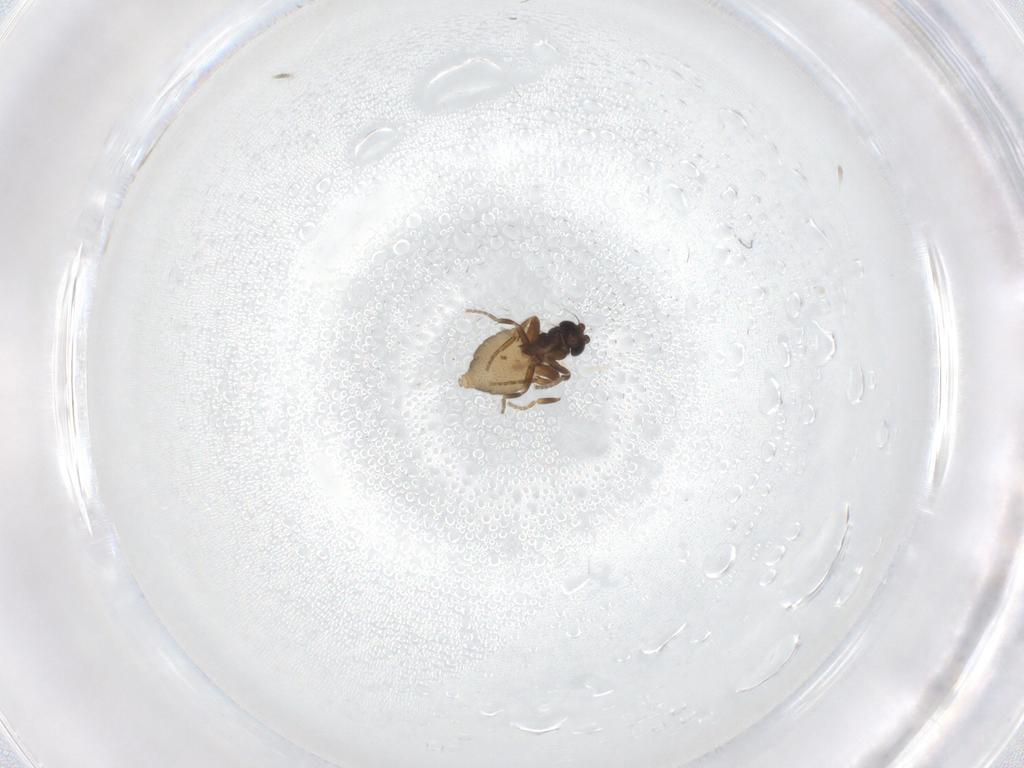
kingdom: Animalia
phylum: Arthropoda
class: Insecta
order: Diptera
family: Phoridae
